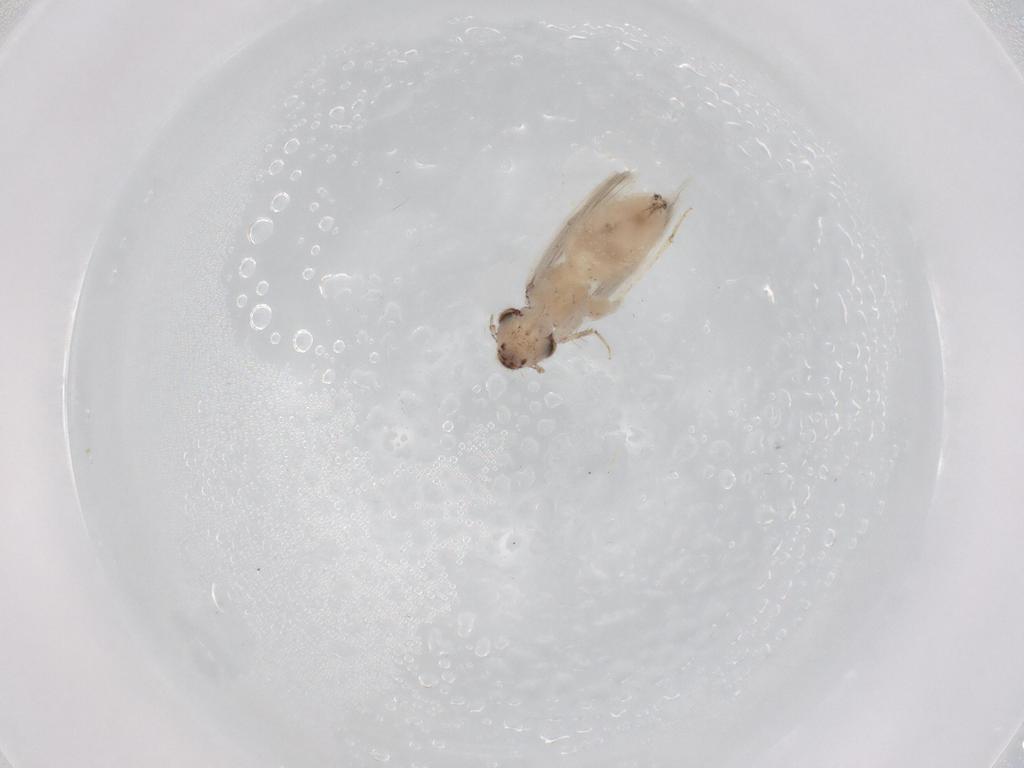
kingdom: Animalia
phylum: Arthropoda
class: Insecta
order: Psocodea
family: Lepidopsocidae
